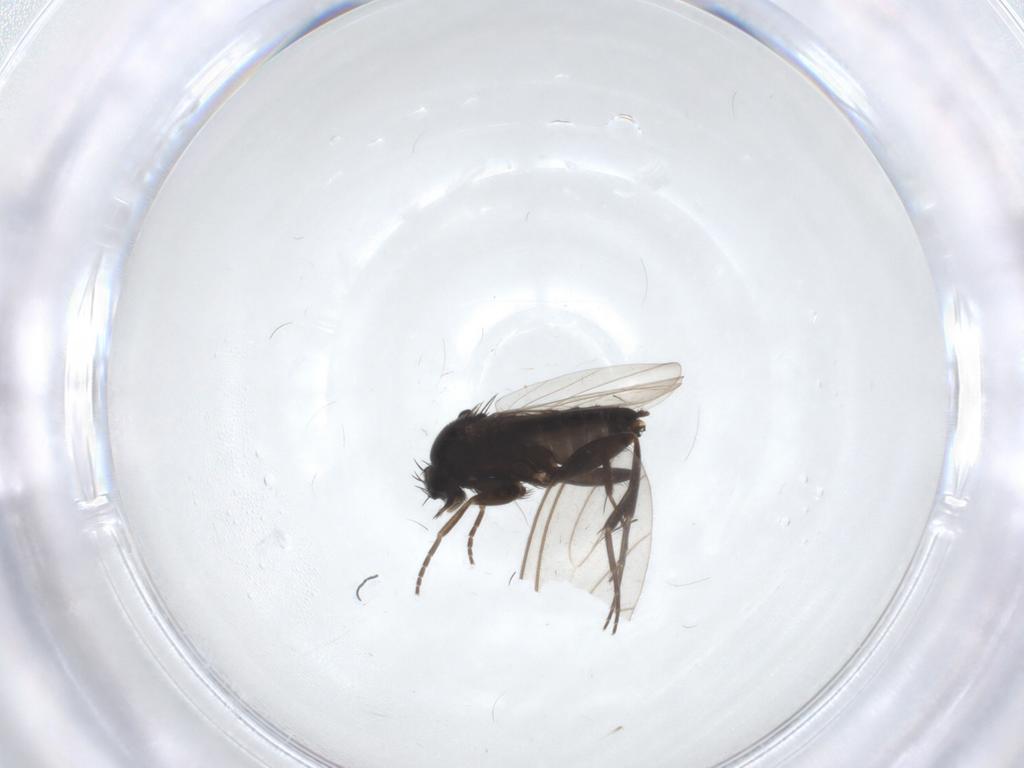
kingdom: Animalia
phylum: Arthropoda
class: Insecta
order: Diptera
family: Phoridae
